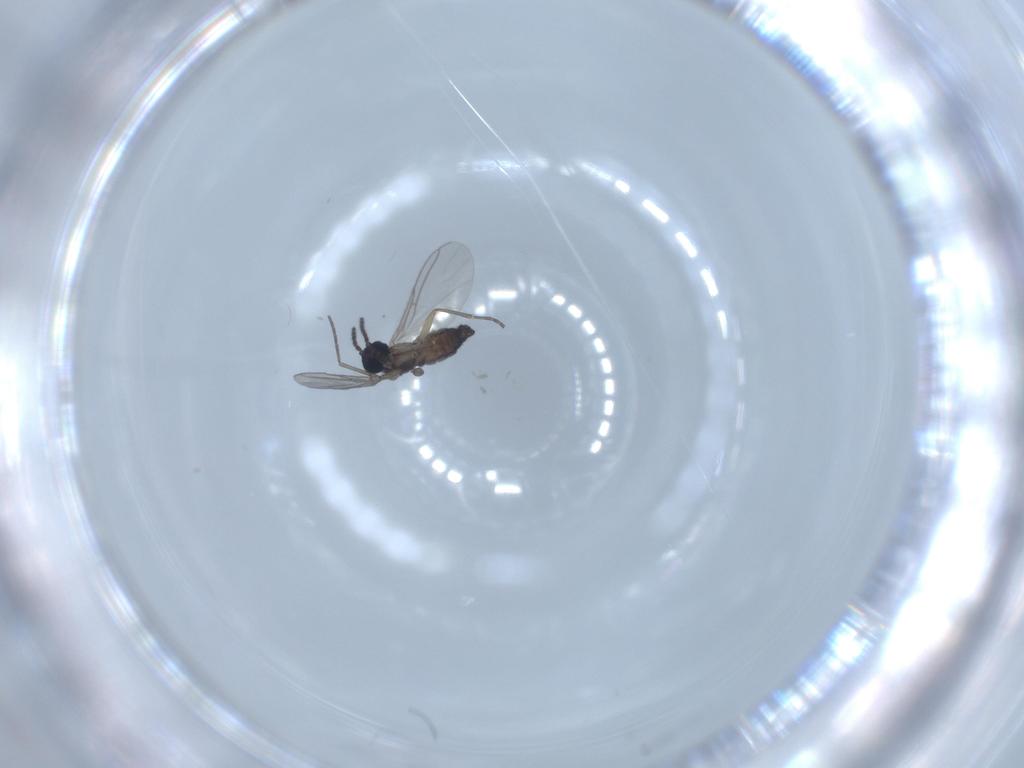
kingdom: Animalia
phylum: Arthropoda
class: Insecta
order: Diptera
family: Sciaridae
